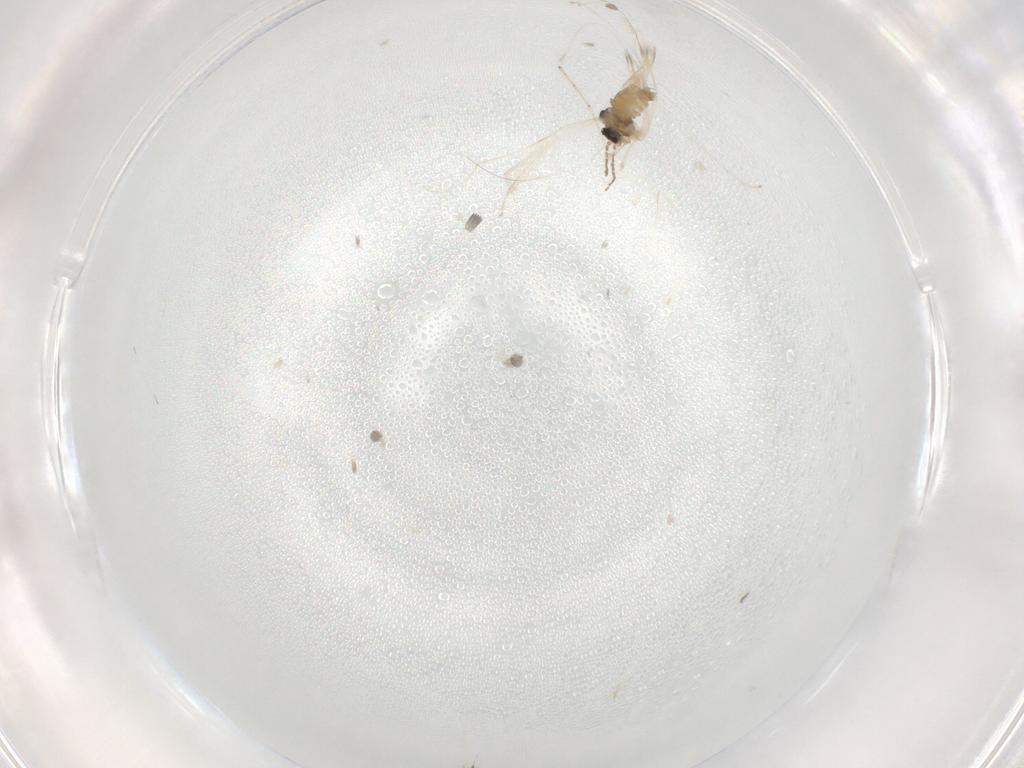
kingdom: Animalia
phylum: Arthropoda
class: Insecta
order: Diptera
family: Cecidomyiidae
